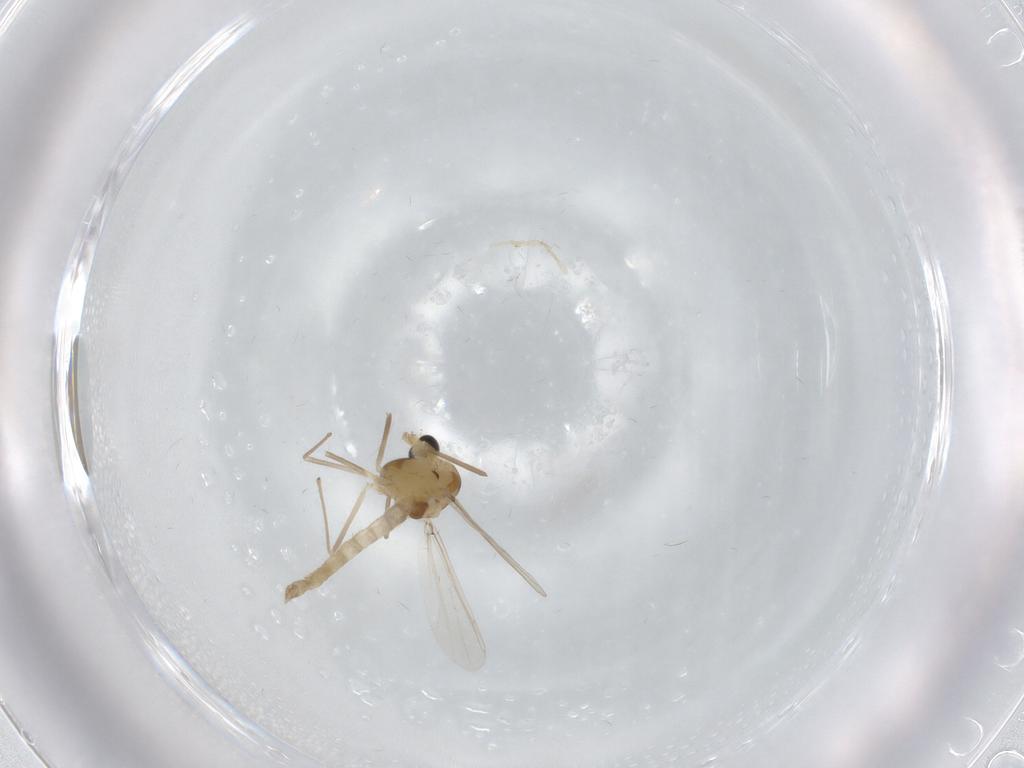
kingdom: Animalia
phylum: Arthropoda
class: Insecta
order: Diptera
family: Chironomidae
